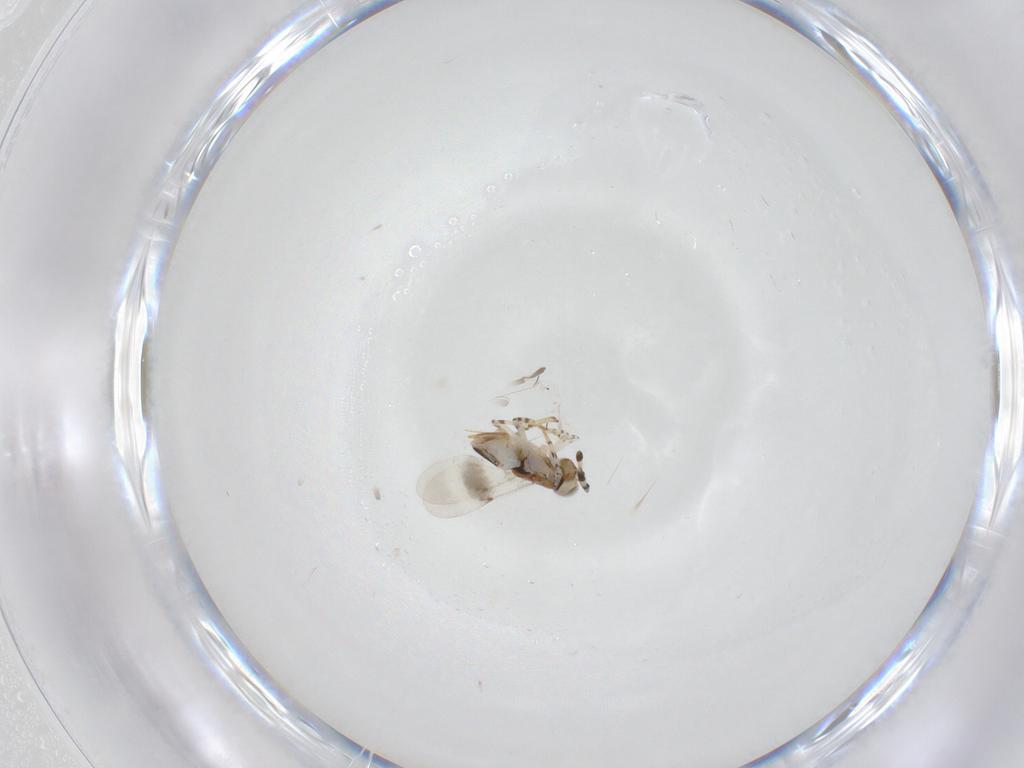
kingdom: Animalia
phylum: Arthropoda
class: Insecta
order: Hymenoptera
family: Encyrtidae
